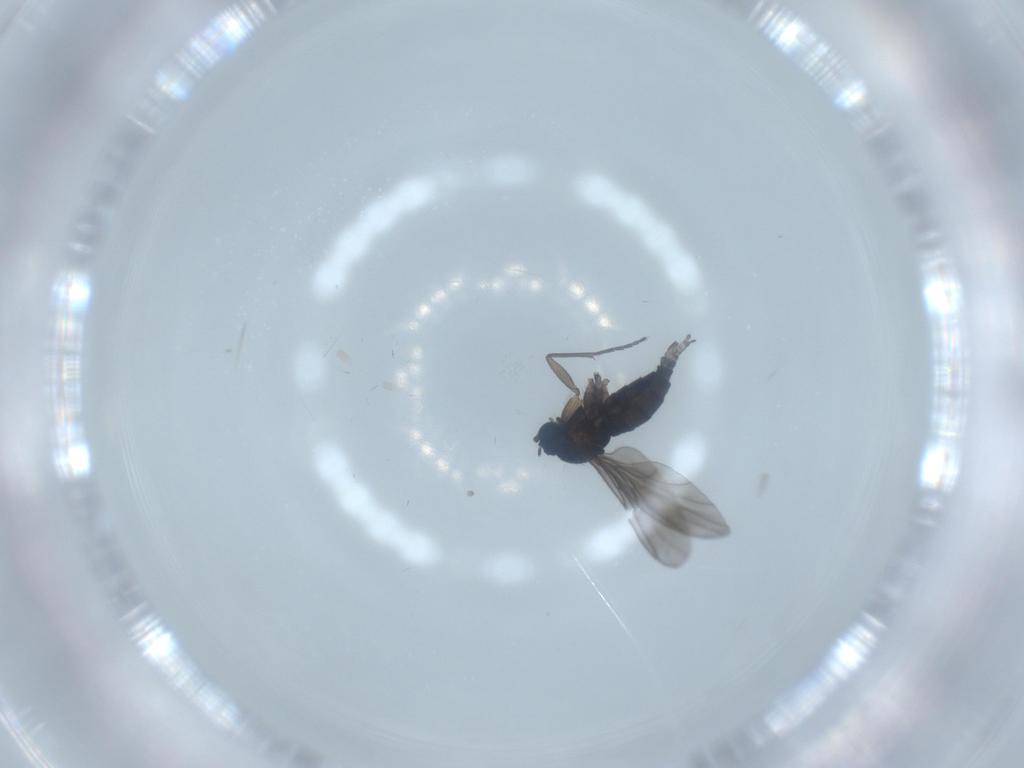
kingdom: Animalia
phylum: Arthropoda
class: Insecta
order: Diptera
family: Sciaridae
